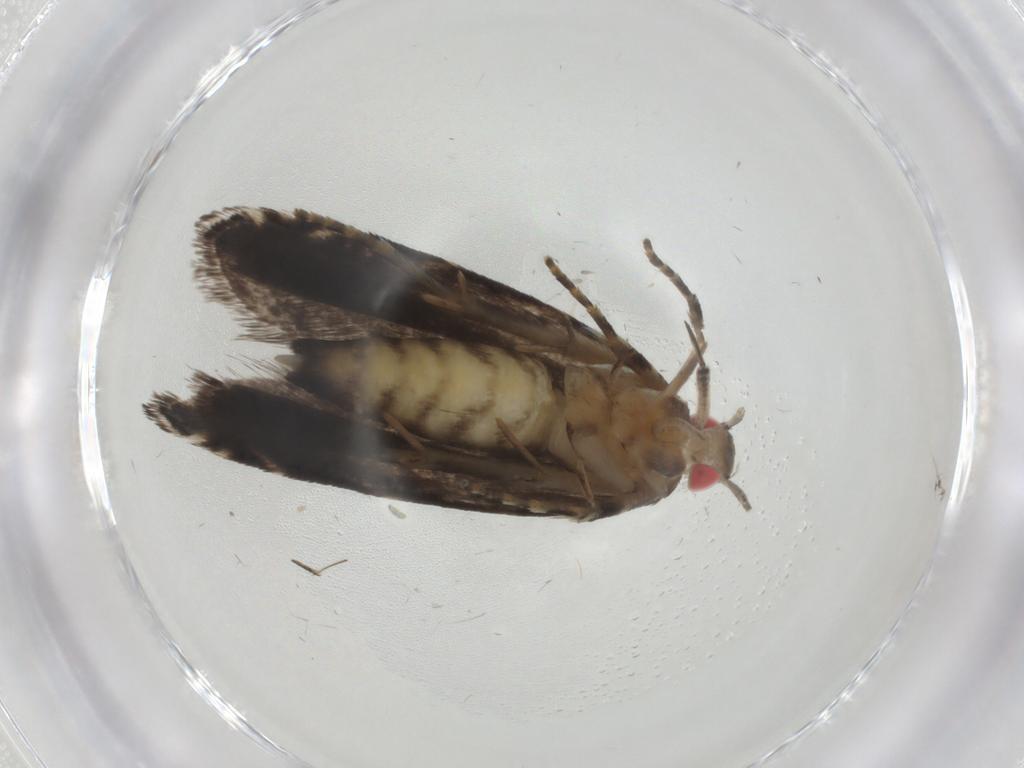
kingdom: Animalia
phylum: Arthropoda
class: Insecta
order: Lepidoptera
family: Crambidae
